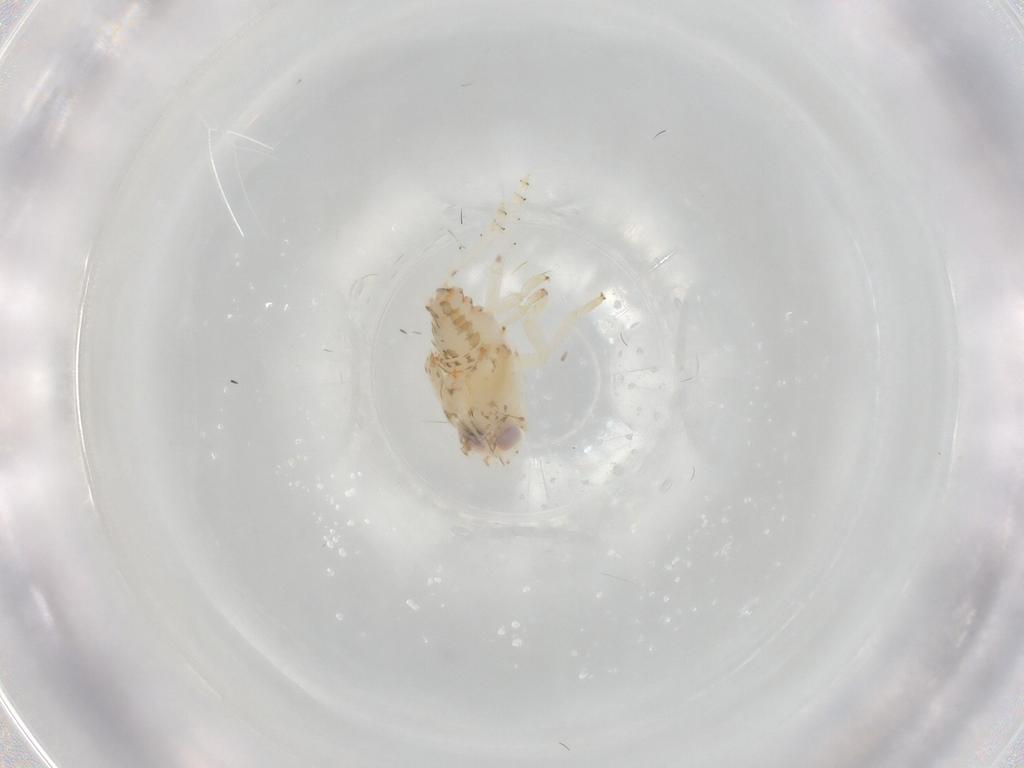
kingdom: Animalia
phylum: Arthropoda
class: Insecta
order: Hemiptera
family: Nogodinidae
